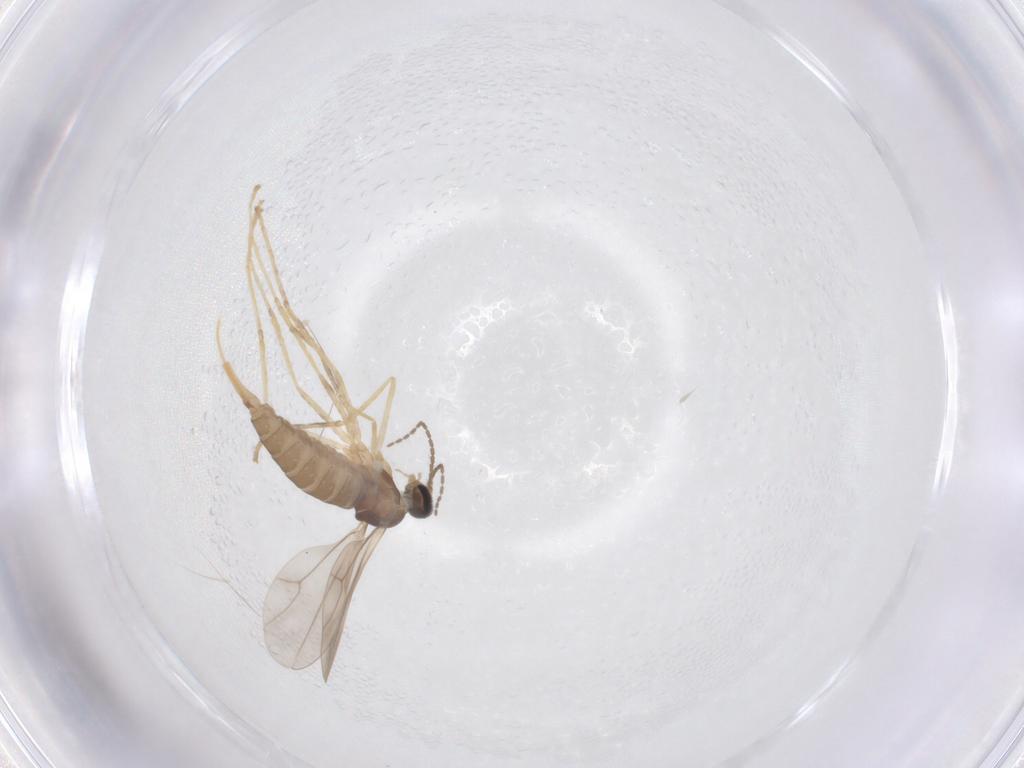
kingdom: Animalia
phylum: Arthropoda
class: Insecta
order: Diptera
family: Cecidomyiidae
